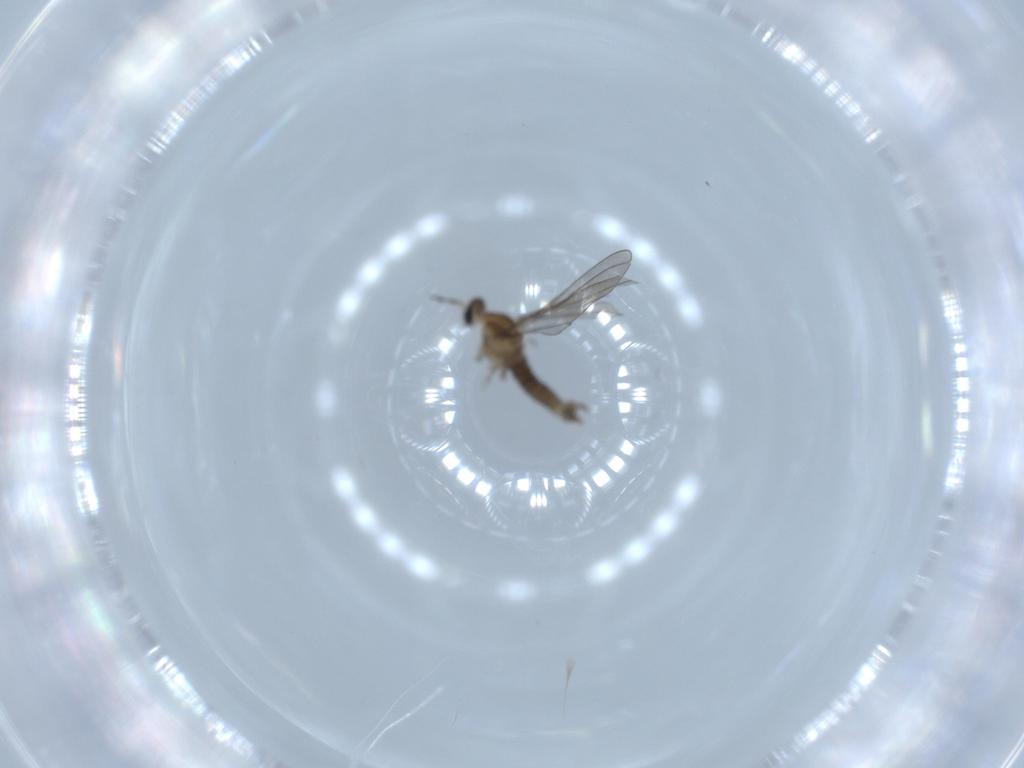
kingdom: Animalia
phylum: Arthropoda
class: Insecta
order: Diptera
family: Cecidomyiidae
